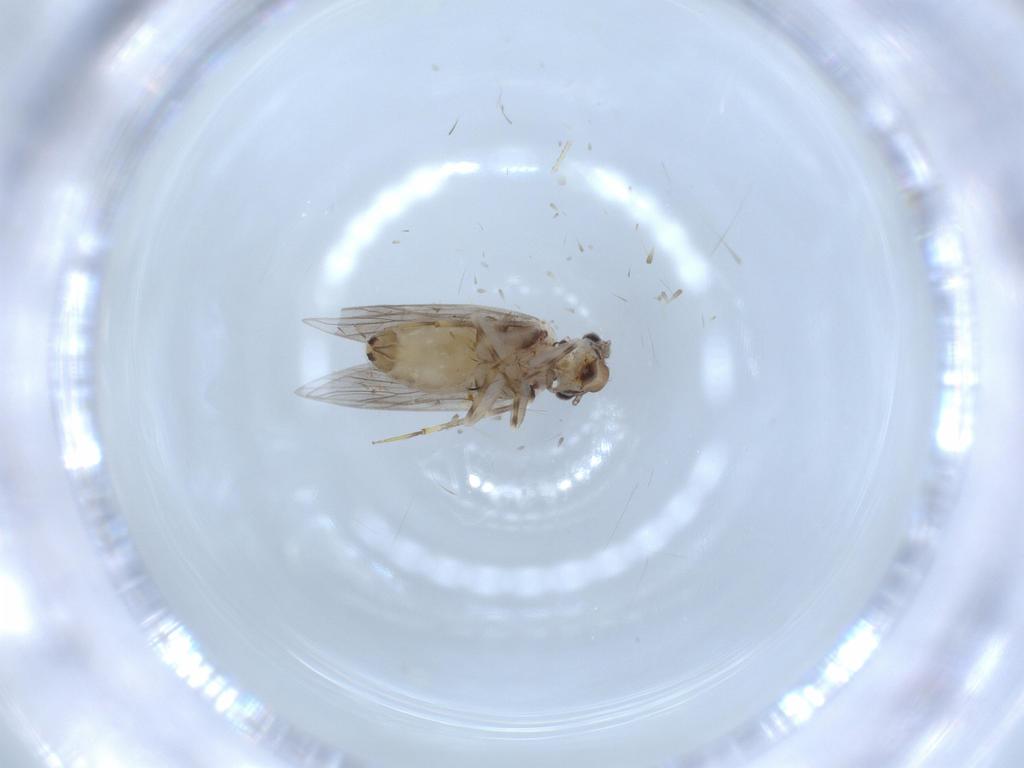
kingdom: Animalia
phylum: Arthropoda
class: Insecta
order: Psocodea
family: Lepidopsocidae
